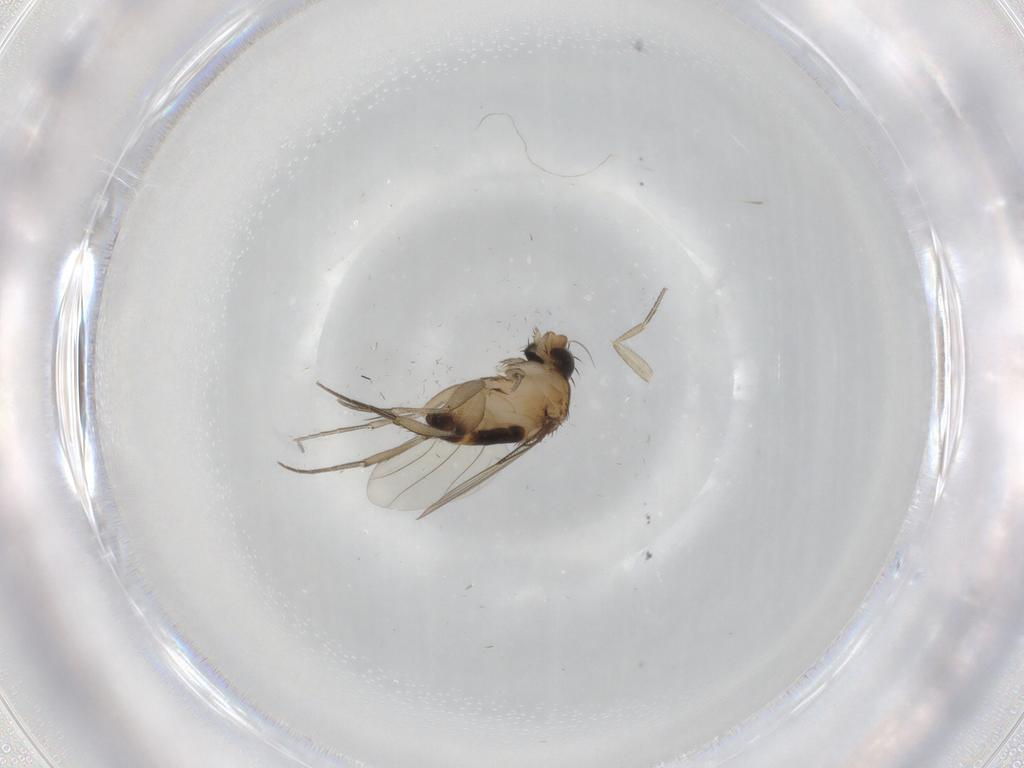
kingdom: Animalia
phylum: Arthropoda
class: Insecta
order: Diptera
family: Phoridae
